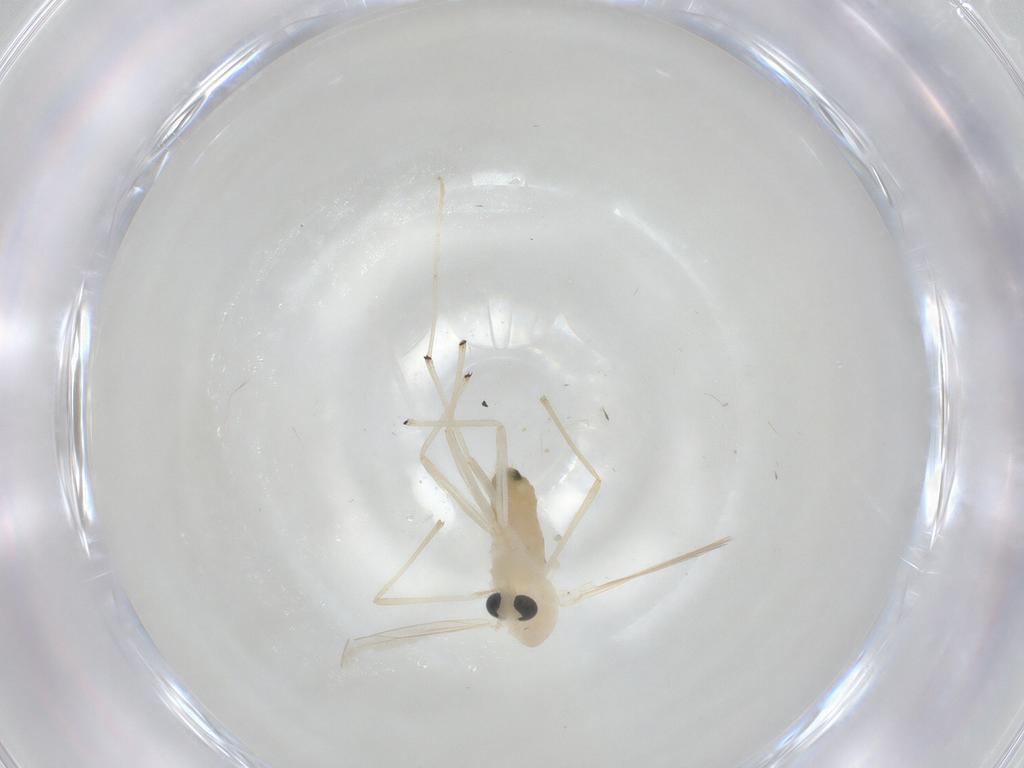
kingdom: Animalia
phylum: Arthropoda
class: Insecta
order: Diptera
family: Chironomidae
